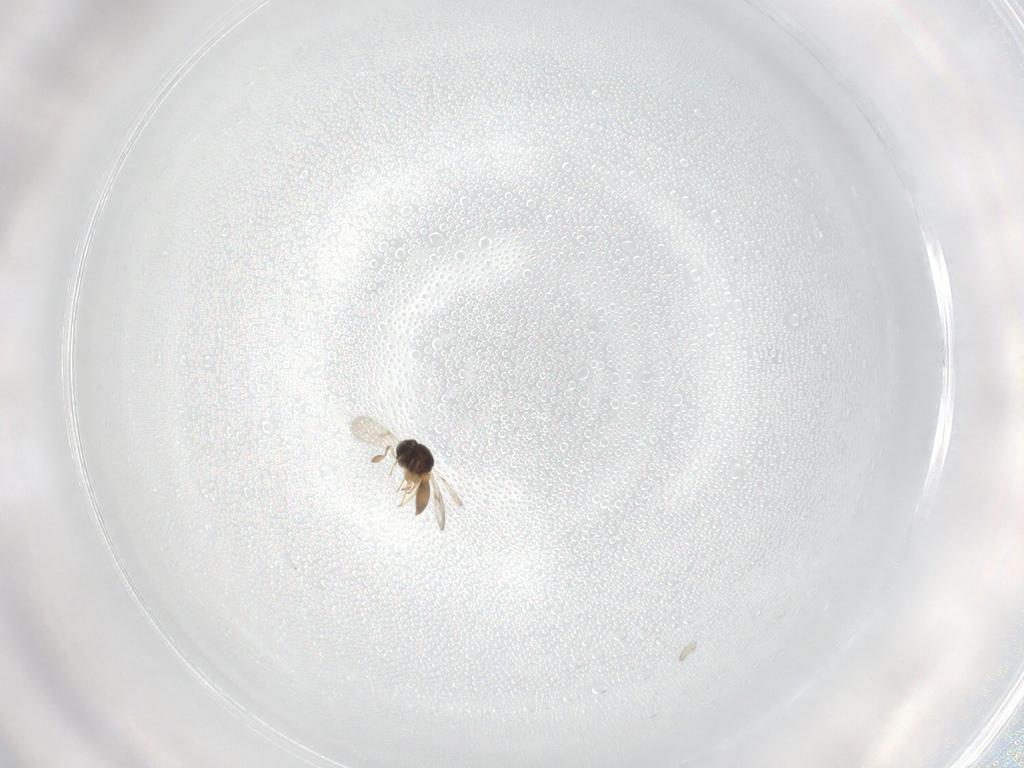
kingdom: Animalia
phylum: Arthropoda
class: Insecta
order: Hymenoptera
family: Scelionidae
